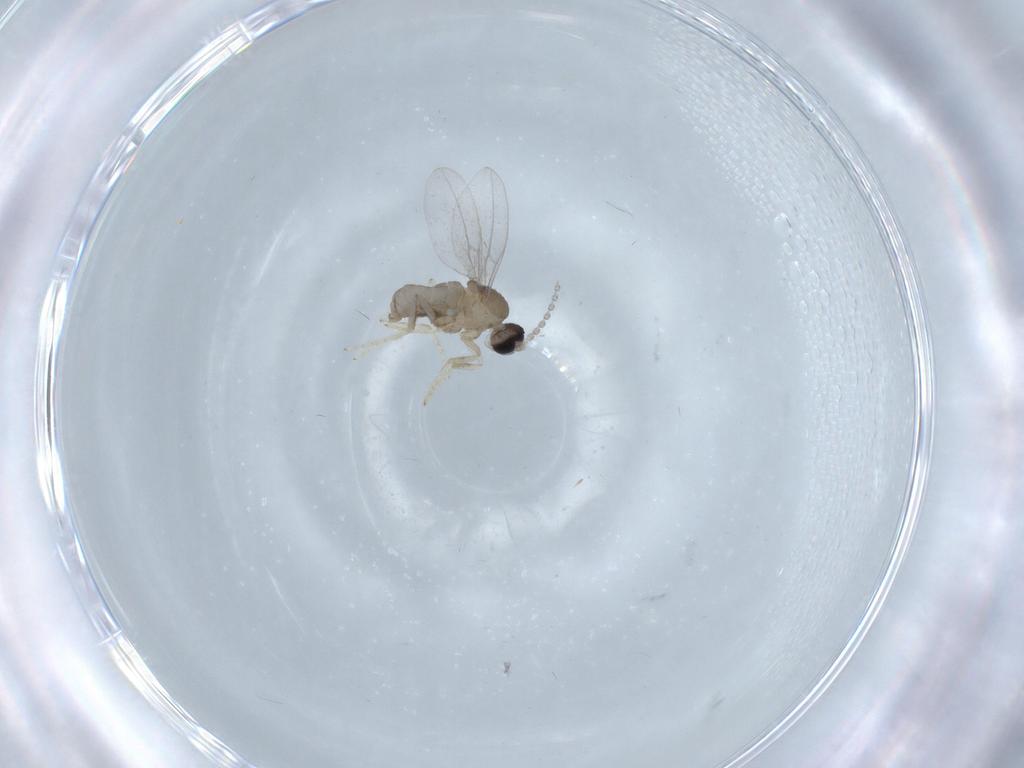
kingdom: Animalia
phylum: Arthropoda
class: Insecta
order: Diptera
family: Cecidomyiidae
